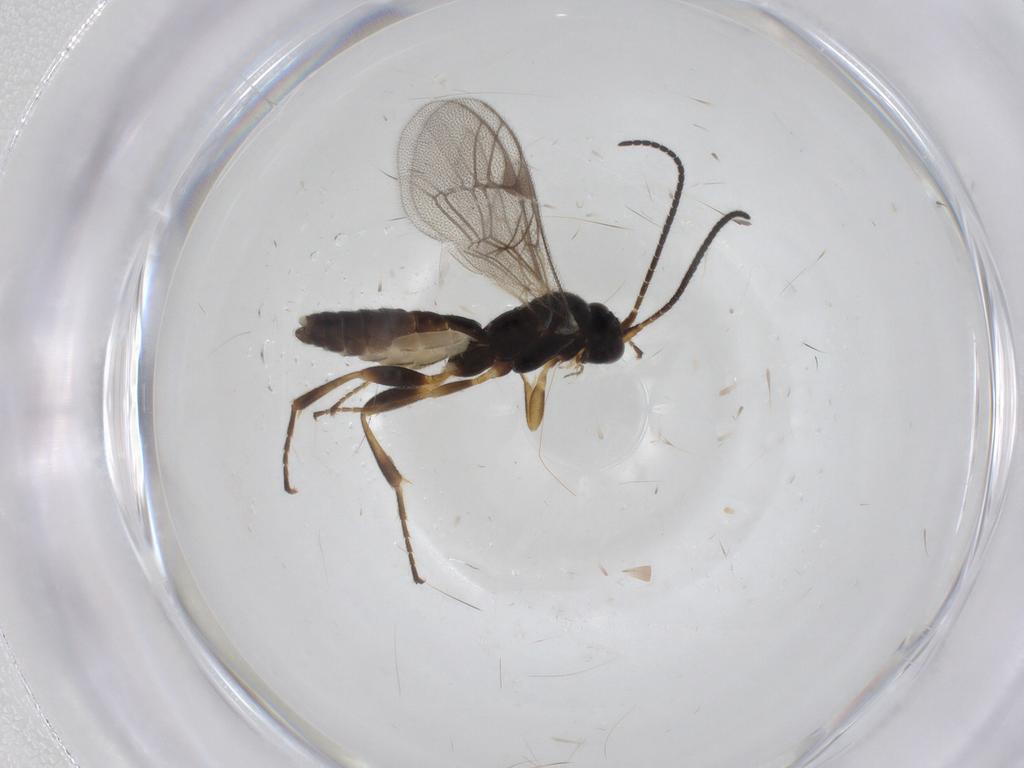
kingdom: Animalia
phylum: Arthropoda
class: Insecta
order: Hymenoptera
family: Ichneumonidae
